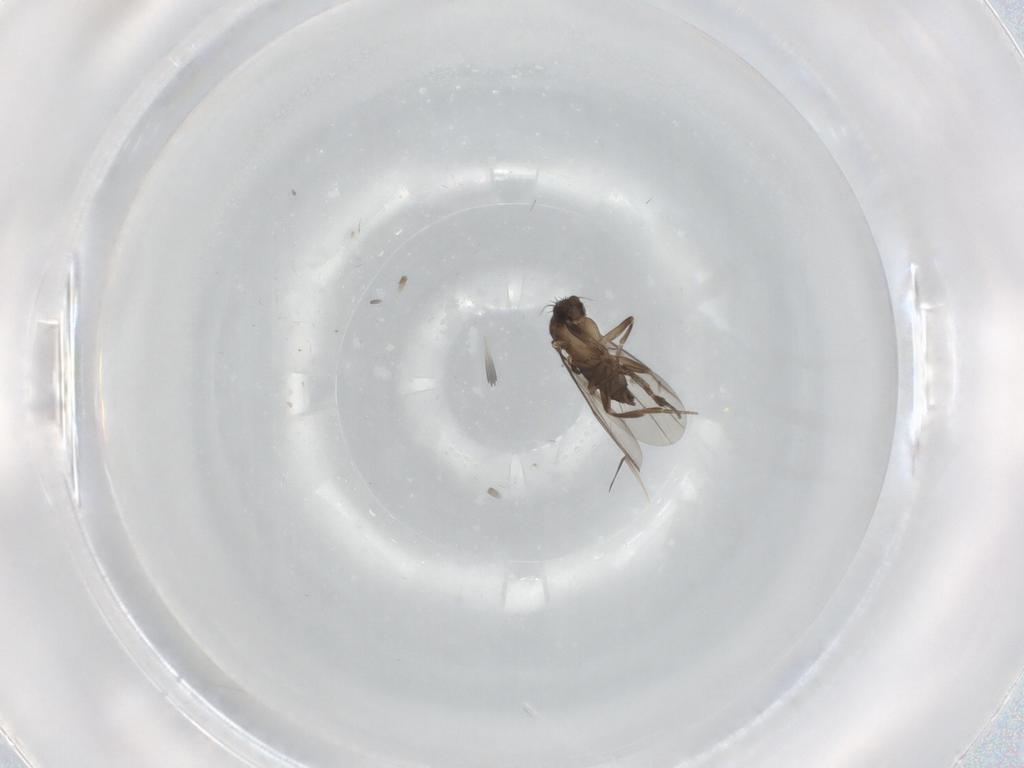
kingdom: Animalia
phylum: Arthropoda
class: Insecta
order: Diptera
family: Phoridae
